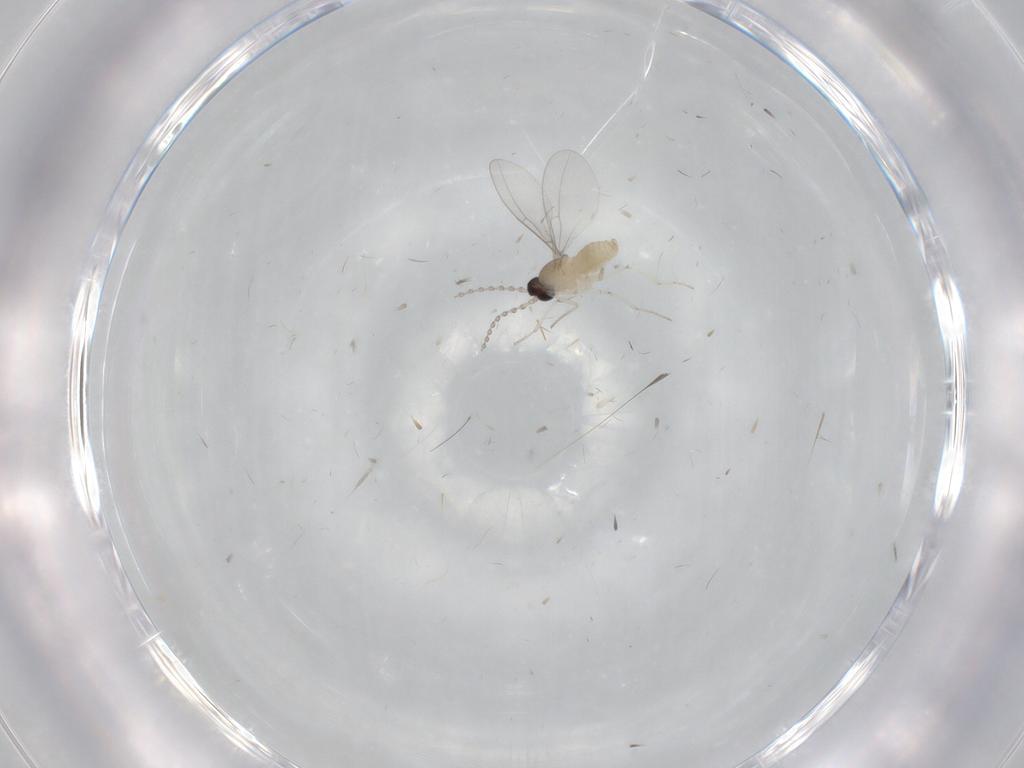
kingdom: Animalia
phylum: Arthropoda
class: Insecta
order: Diptera
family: Cecidomyiidae
